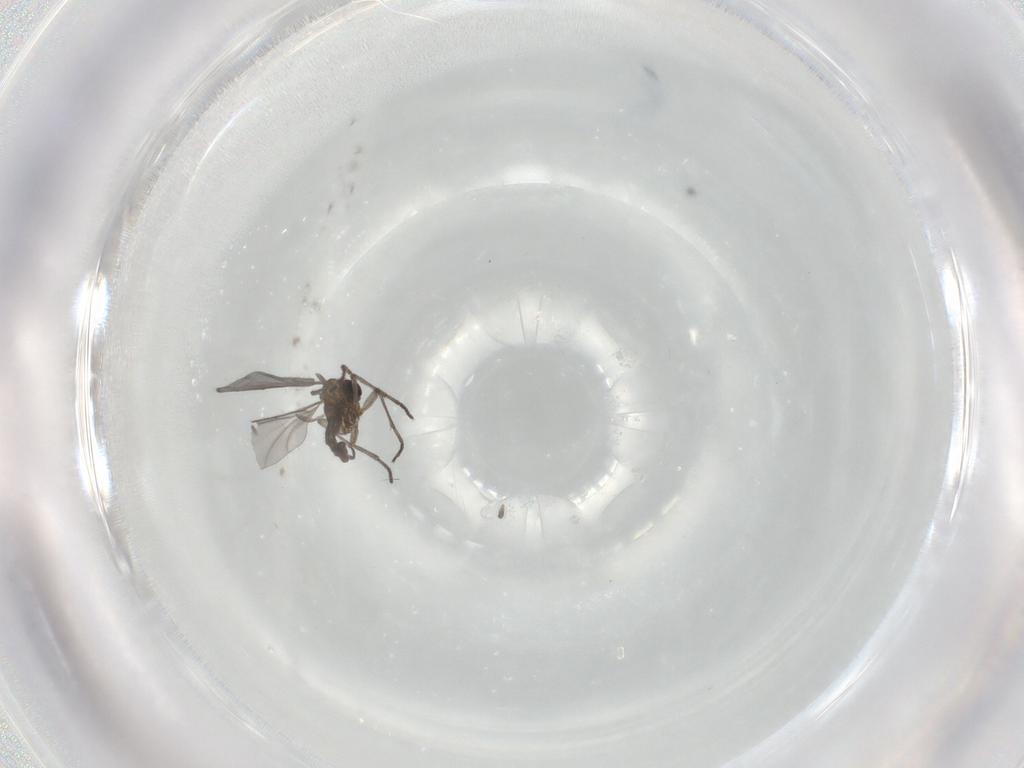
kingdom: Animalia
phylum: Arthropoda
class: Insecta
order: Diptera
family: Sciaridae
